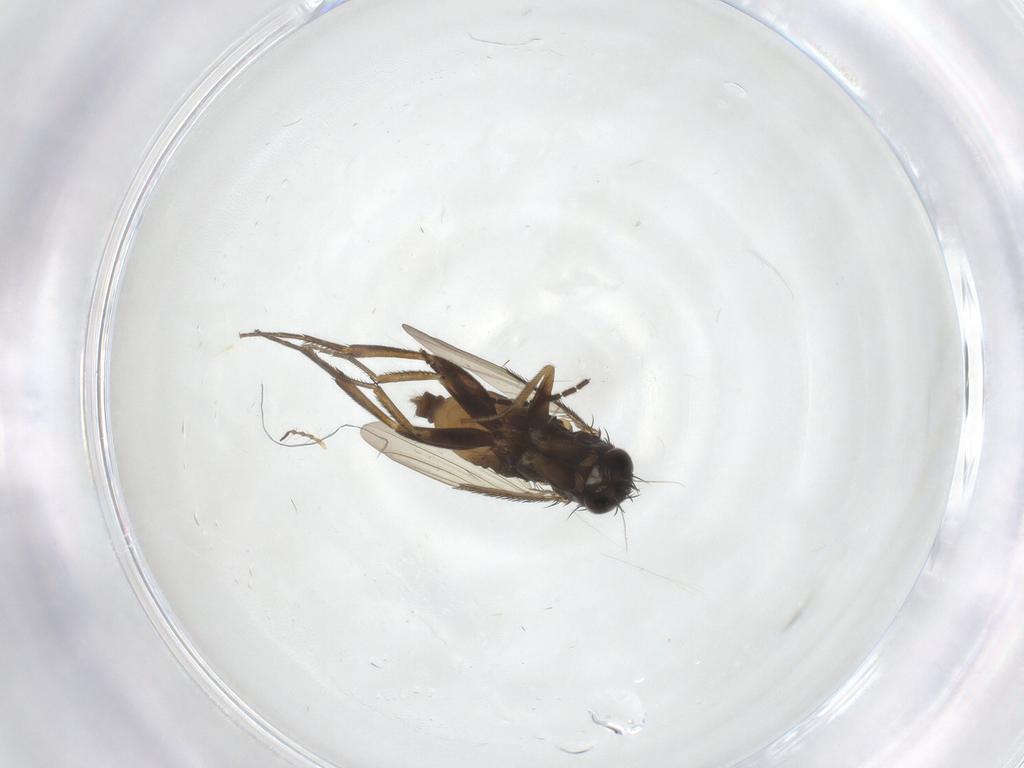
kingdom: Animalia
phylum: Arthropoda
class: Insecta
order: Diptera
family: Phoridae
